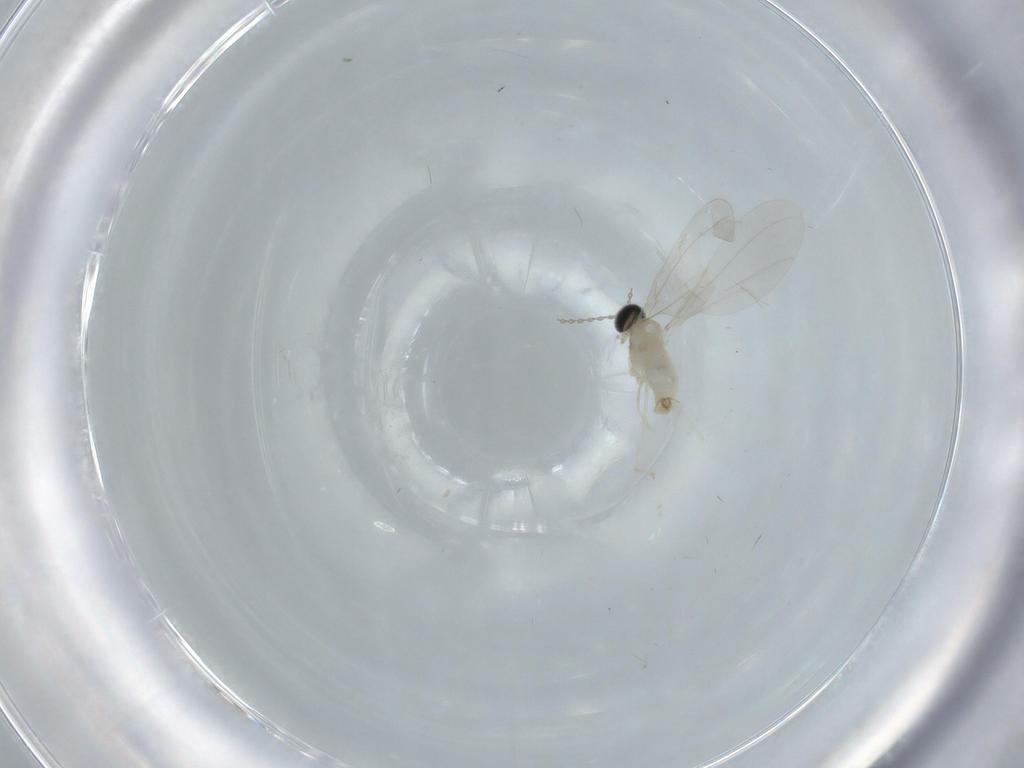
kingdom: Animalia
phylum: Arthropoda
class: Insecta
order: Diptera
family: Cecidomyiidae
